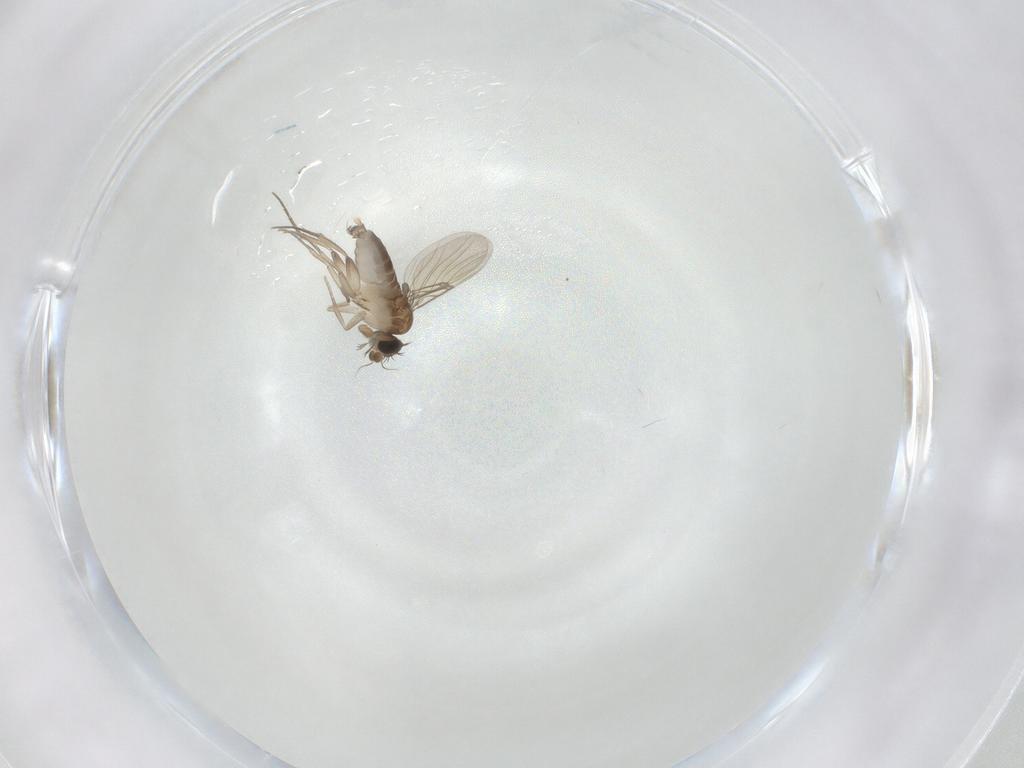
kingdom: Animalia
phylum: Arthropoda
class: Insecta
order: Diptera
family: Phoridae
